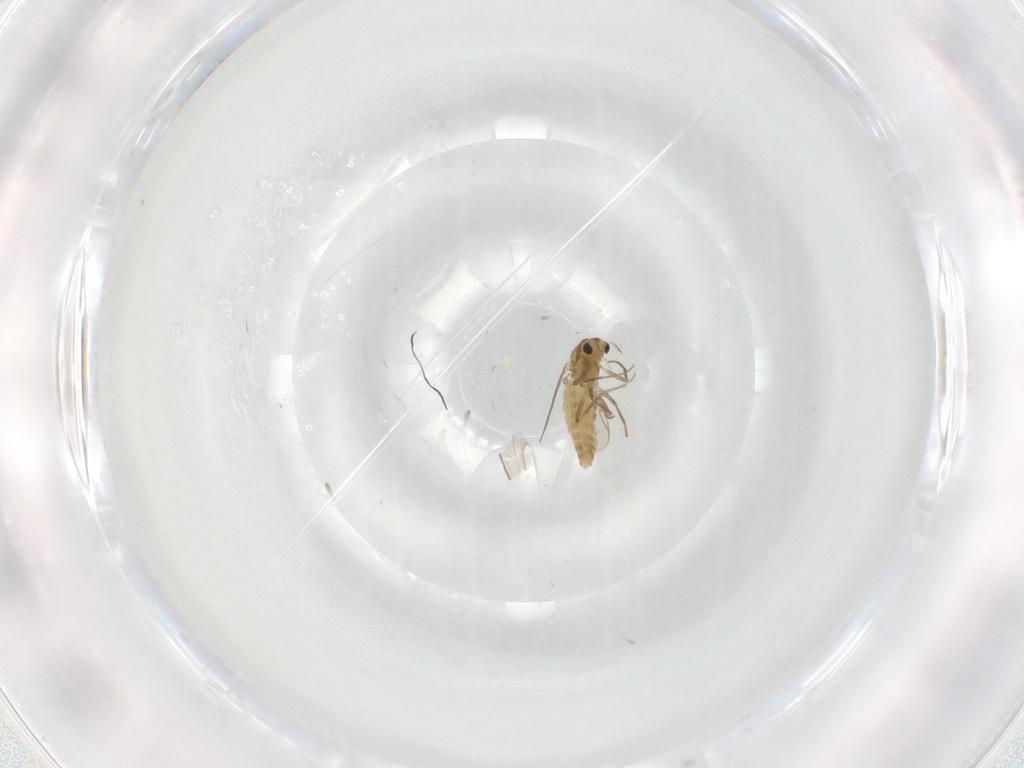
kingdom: Animalia
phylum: Arthropoda
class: Insecta
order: Diptera
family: Chironomidae
